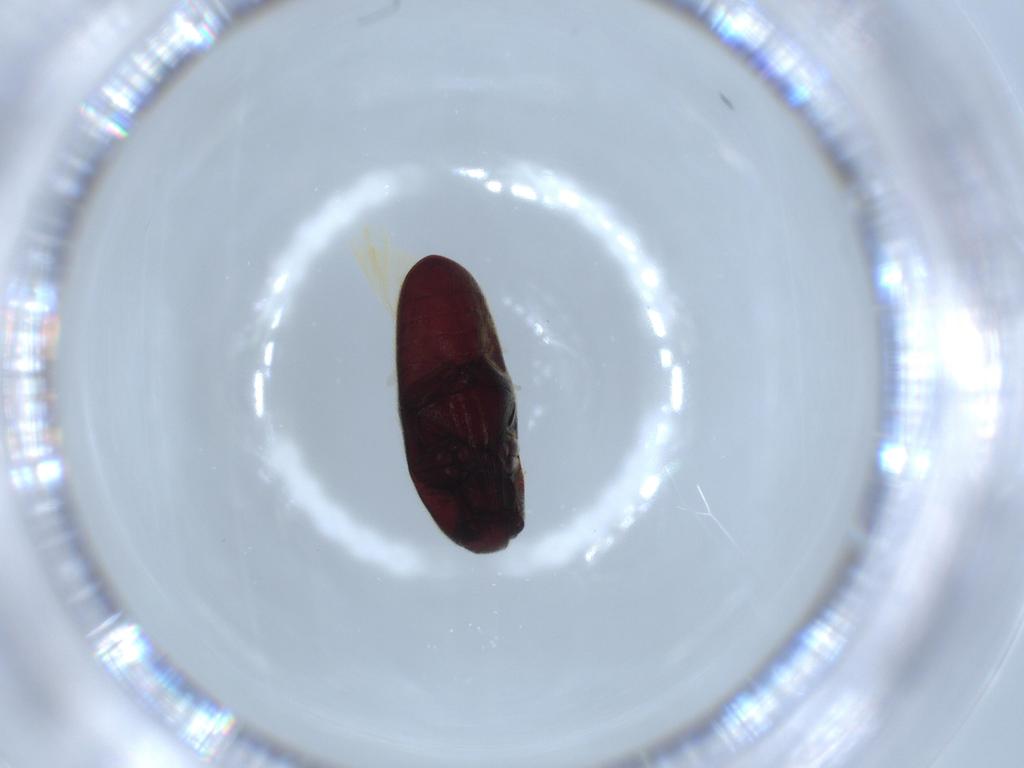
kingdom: Animalia
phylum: Arthropoda
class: Insecta
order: Coleoptera
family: Throscidae
